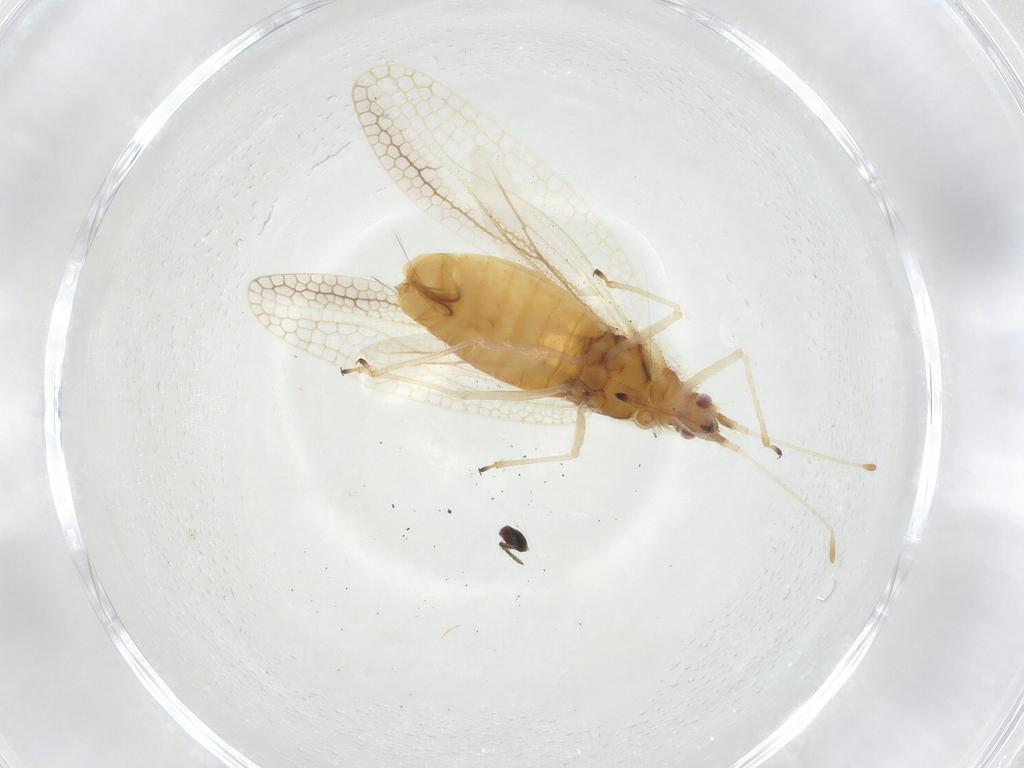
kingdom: Animalia
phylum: Arthropoda
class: Insecta
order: Hemiptera
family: Tingidae
